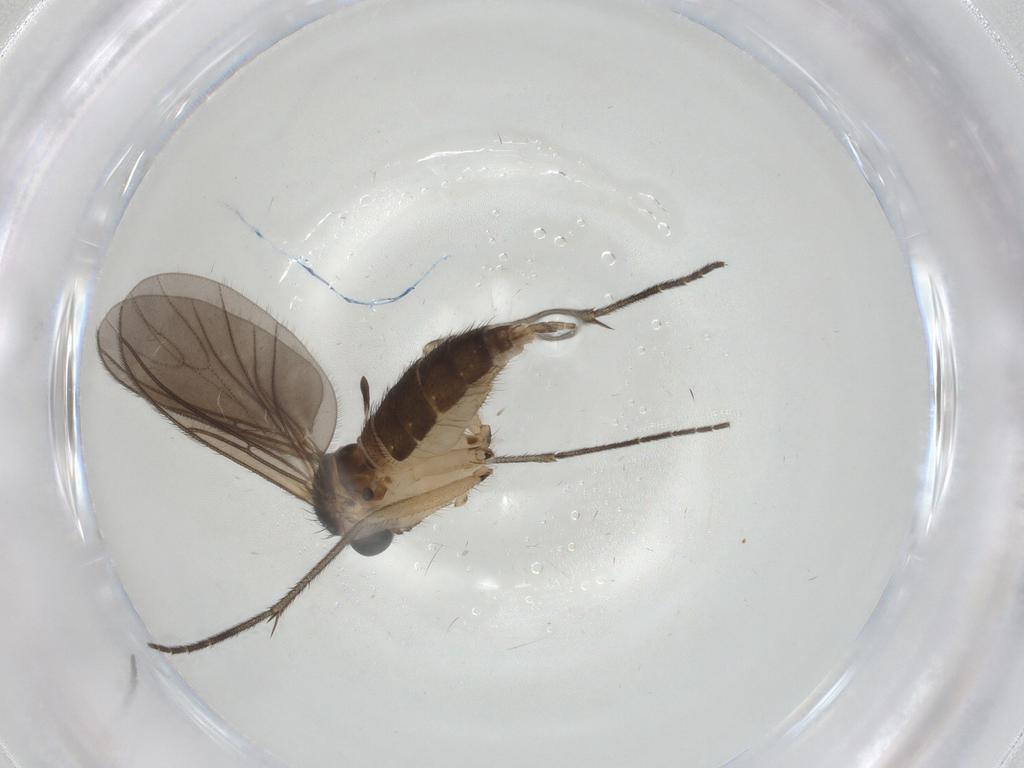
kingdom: Animalia
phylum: Arthropoda
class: Insecta
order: Diptera
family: Sciaridae
